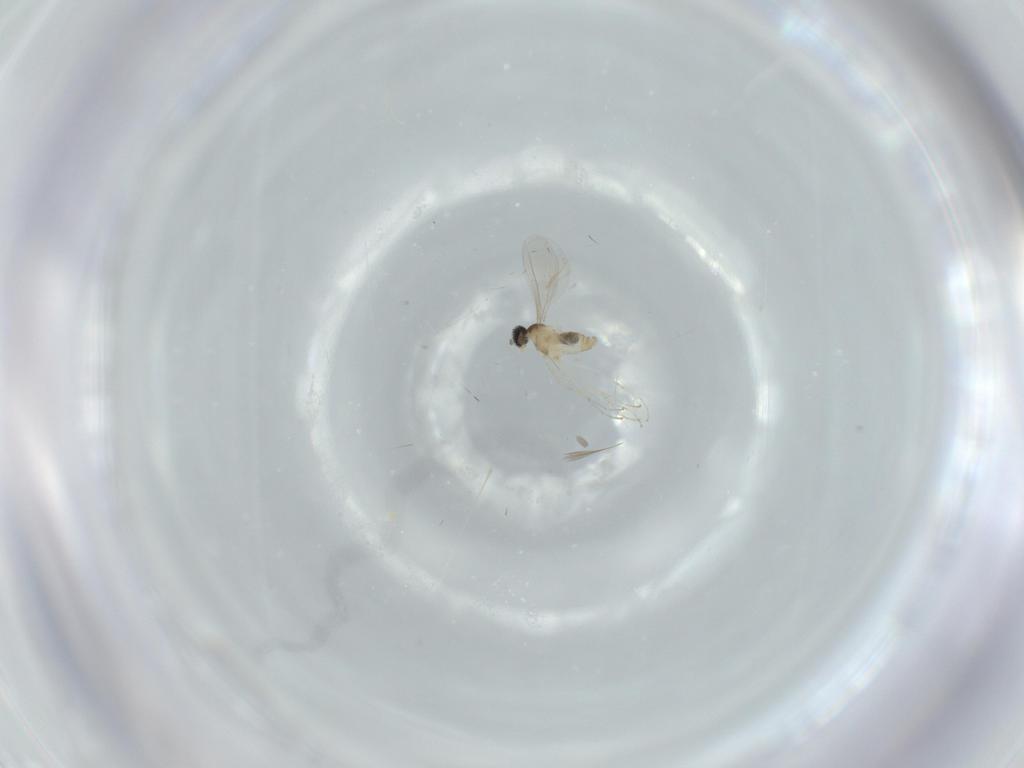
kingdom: Animalia
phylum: Arthropoda
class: Insecta
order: Diptera
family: Cecidomyiidae
